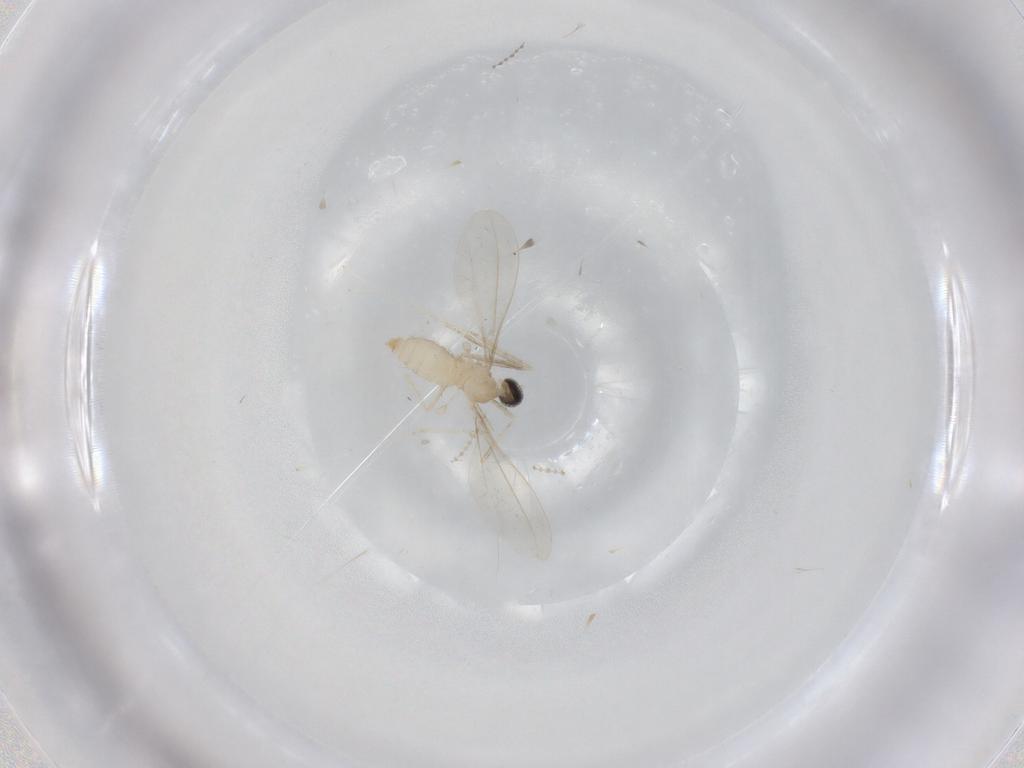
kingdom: Animalia
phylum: Arthropoda
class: Insecta
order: Diptera
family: Cecidomyiidae
